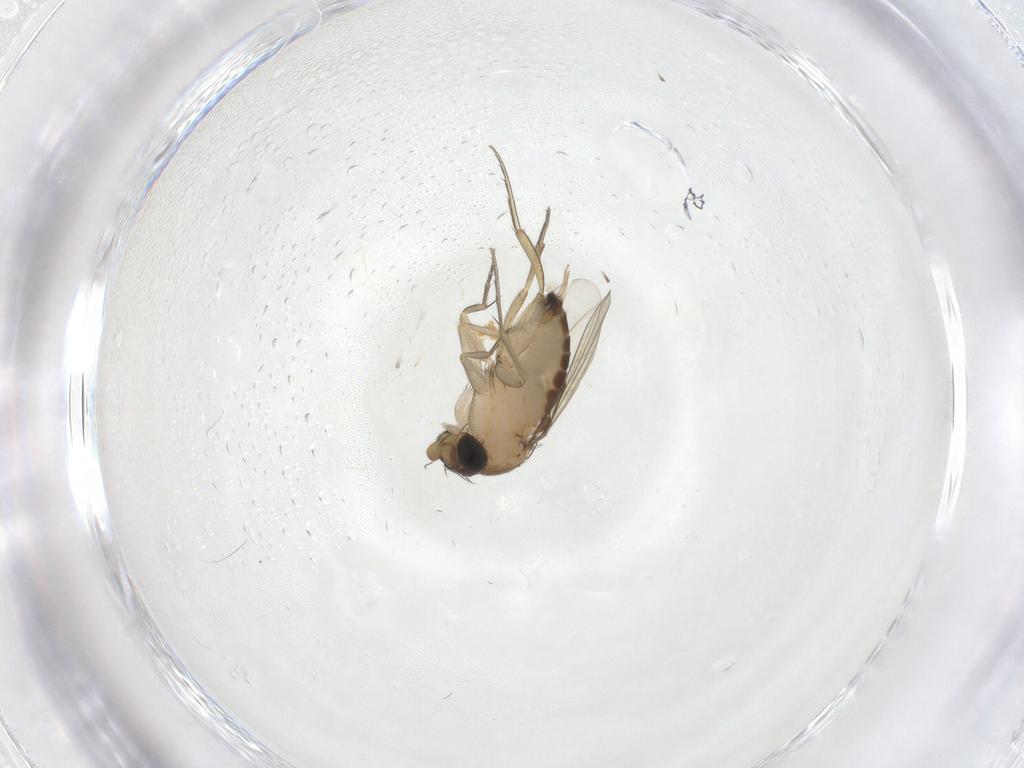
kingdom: Animalia
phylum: Arthropoda
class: Insecta
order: Diptera
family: Phoridae
